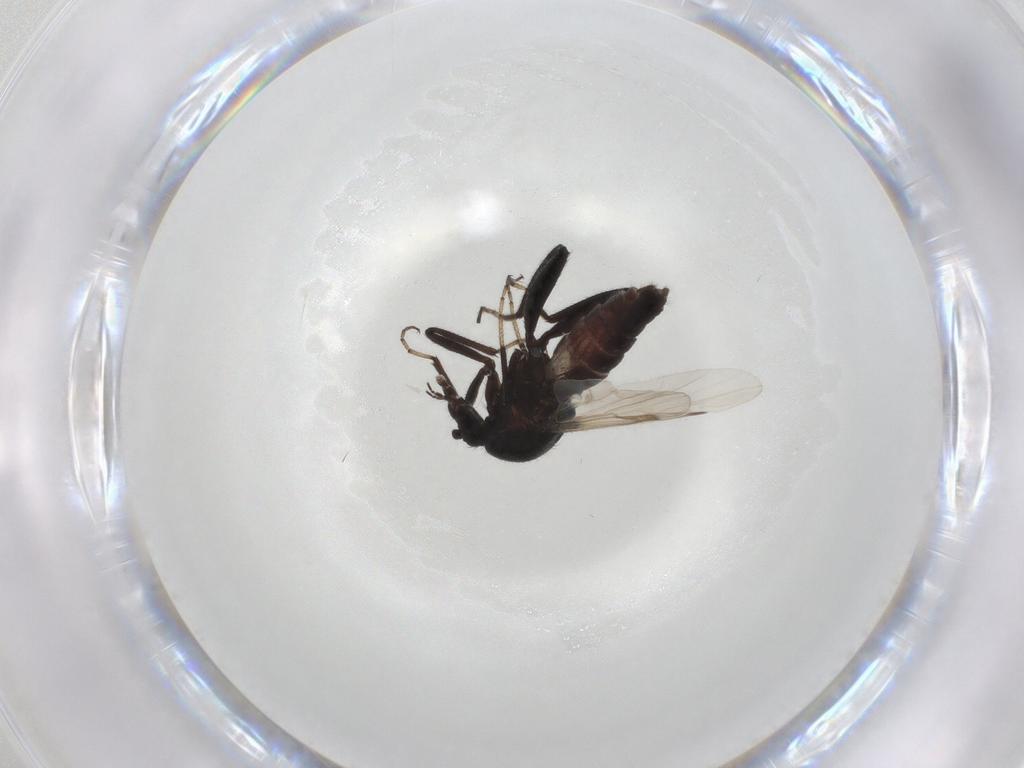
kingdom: Animalia
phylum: Arthropoda
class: Insecta
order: Diptera
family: Ceratopogonidae
